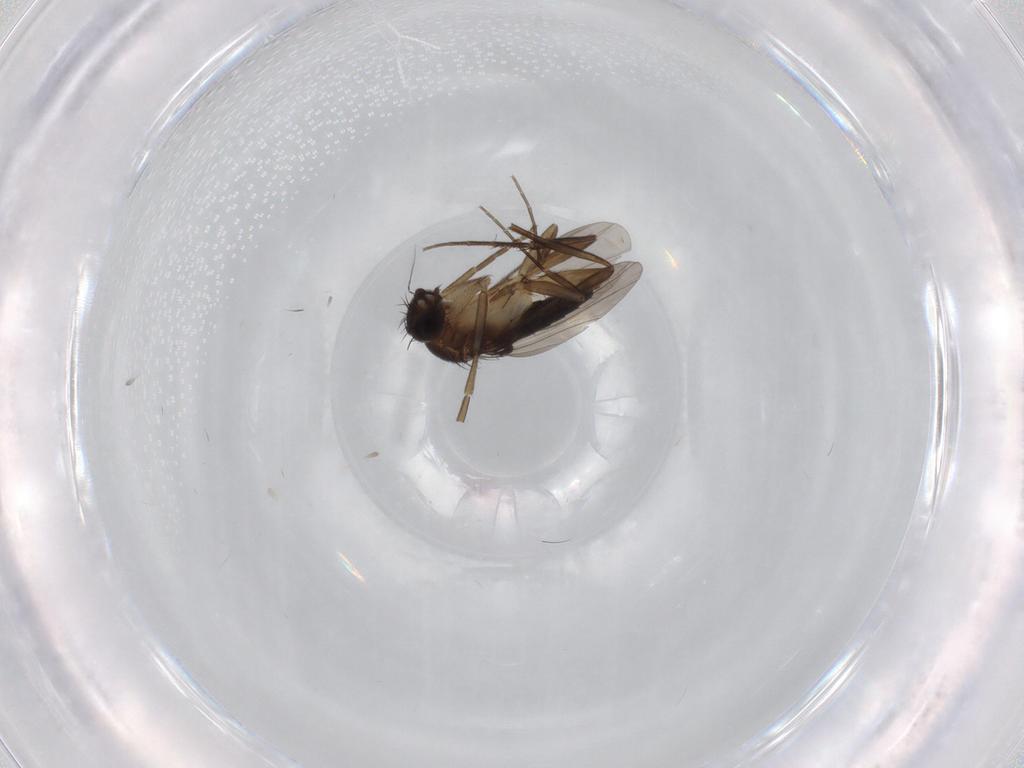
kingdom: Animalia
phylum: Arthropoda
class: Insecta
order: Diptera
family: Phoridae
